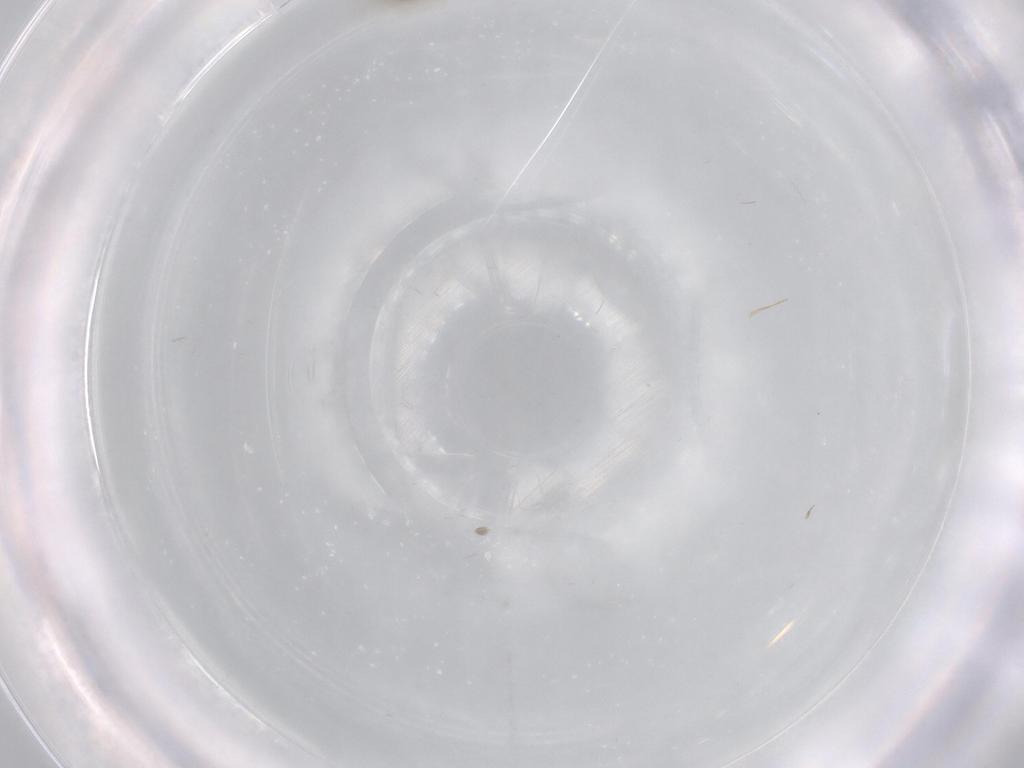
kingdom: Animalia
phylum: Arthropoda
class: Insecta
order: Diptera
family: Cecidomyiidae
